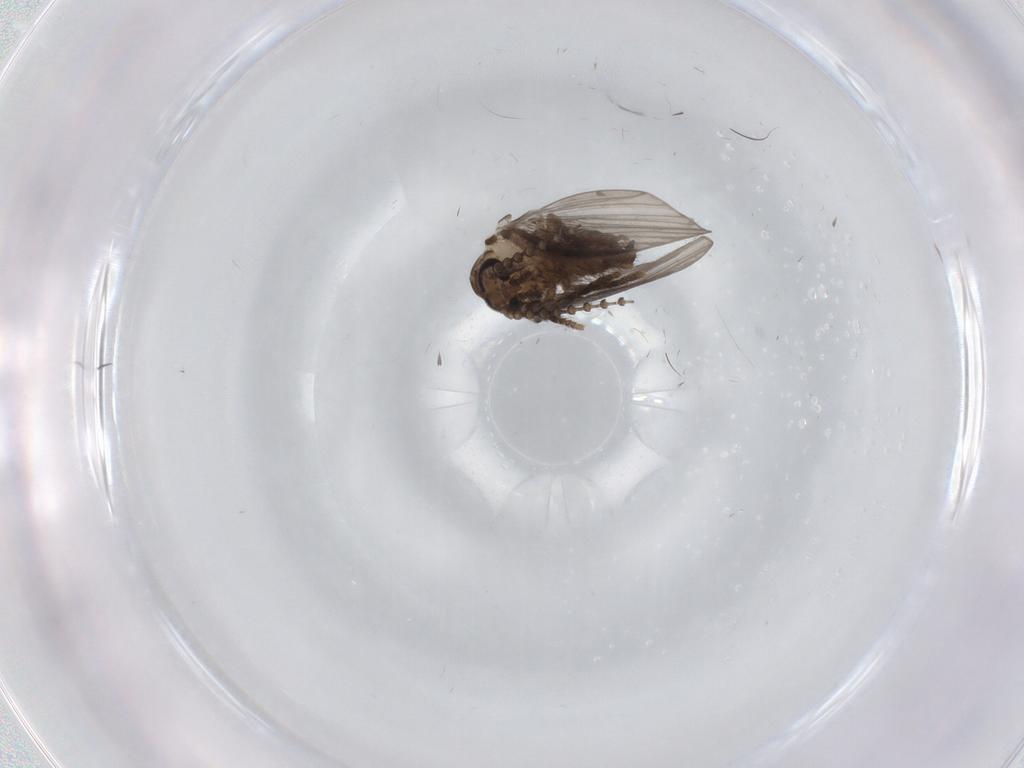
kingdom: Animalia
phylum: Arthropoda
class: Insecta
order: Diptera
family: Psychodidae
